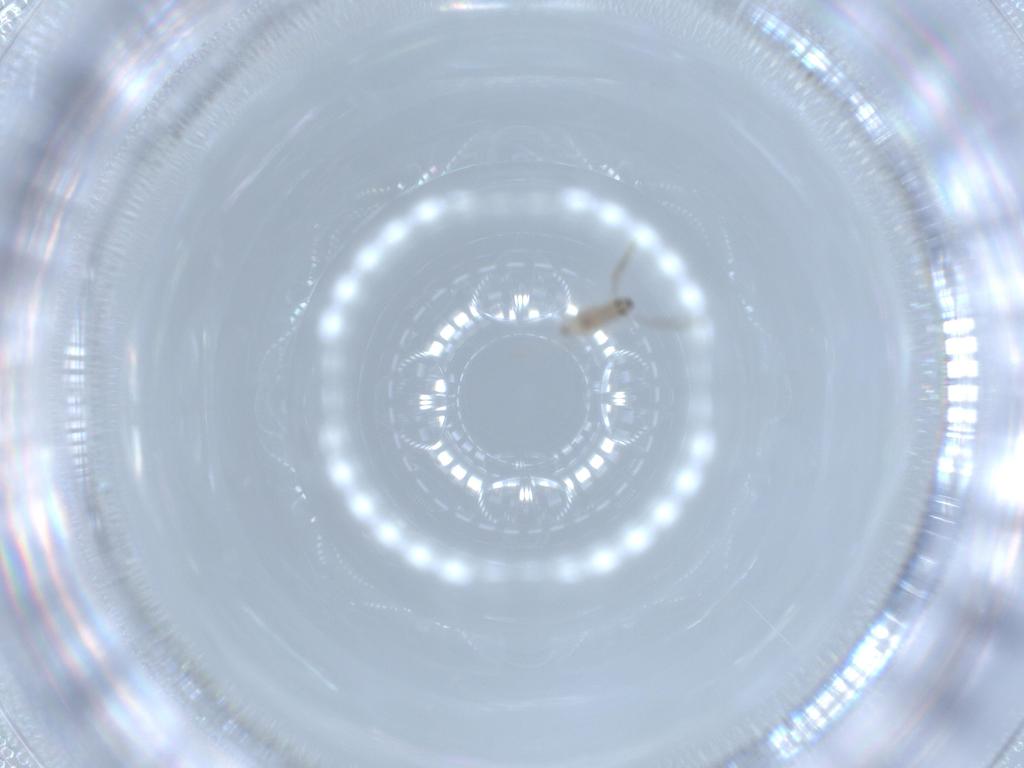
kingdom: Animalia
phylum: Arthropoda
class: Insecta
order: Diptera
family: Cecidomyiidae
